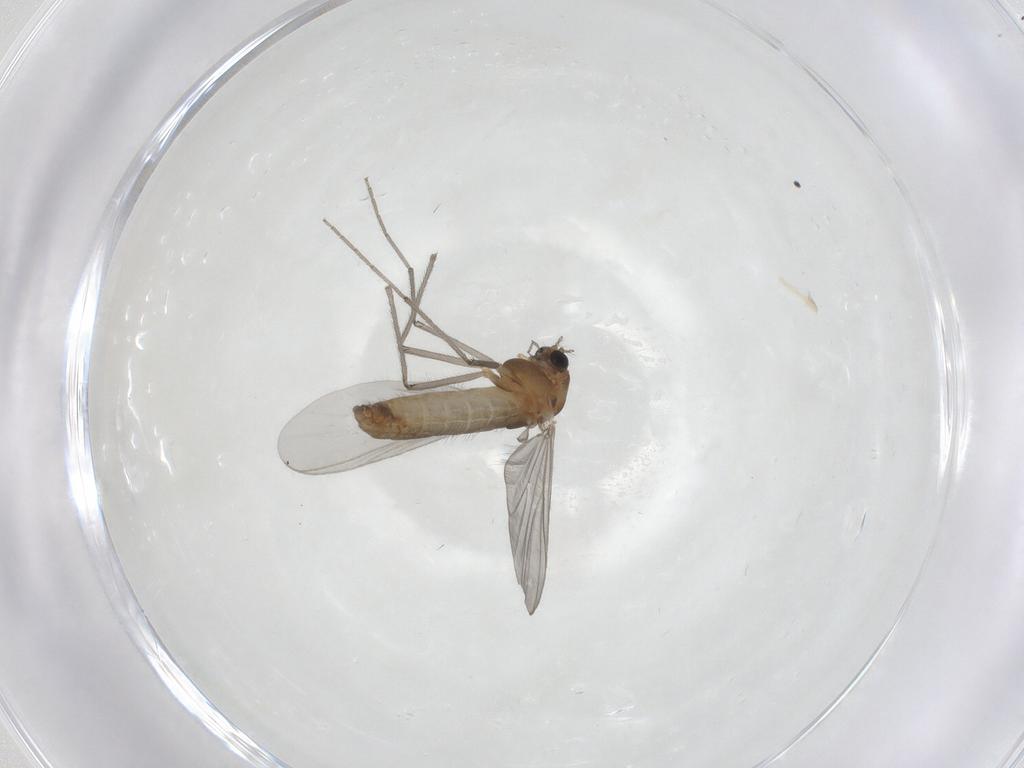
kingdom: Animalia
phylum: Arthropoda
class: Insecta
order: Diptera
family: Chironomidae
